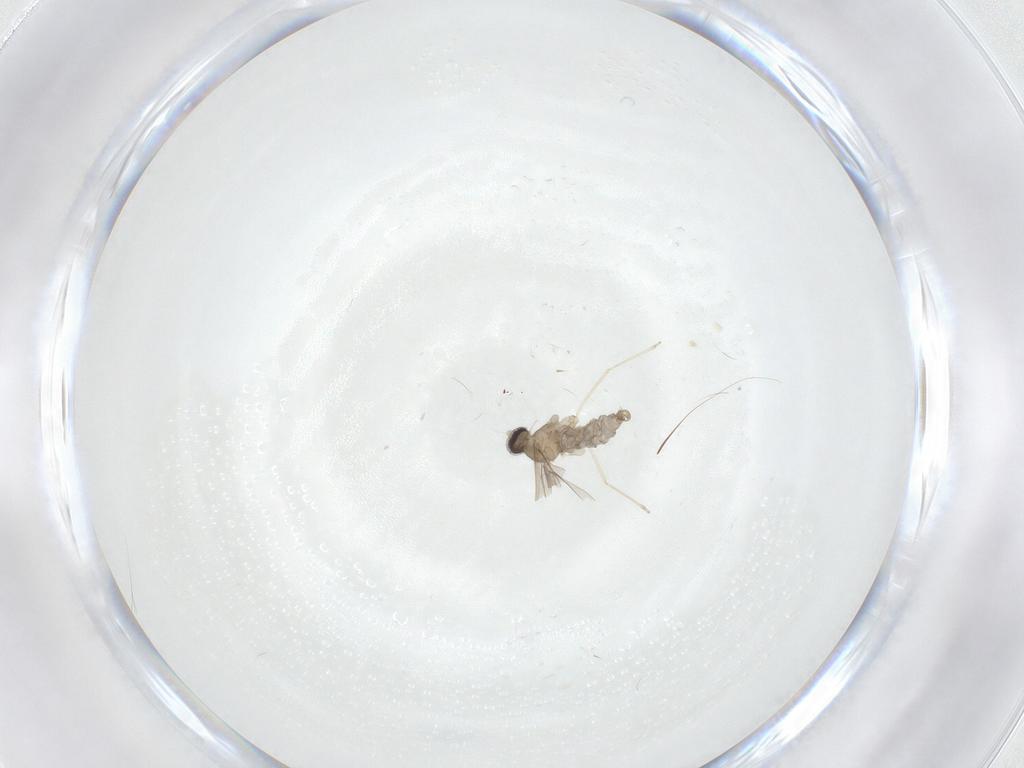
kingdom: Animalia
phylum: Arthropoda
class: Insecta
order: Diptera
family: Cecidomyiidae
